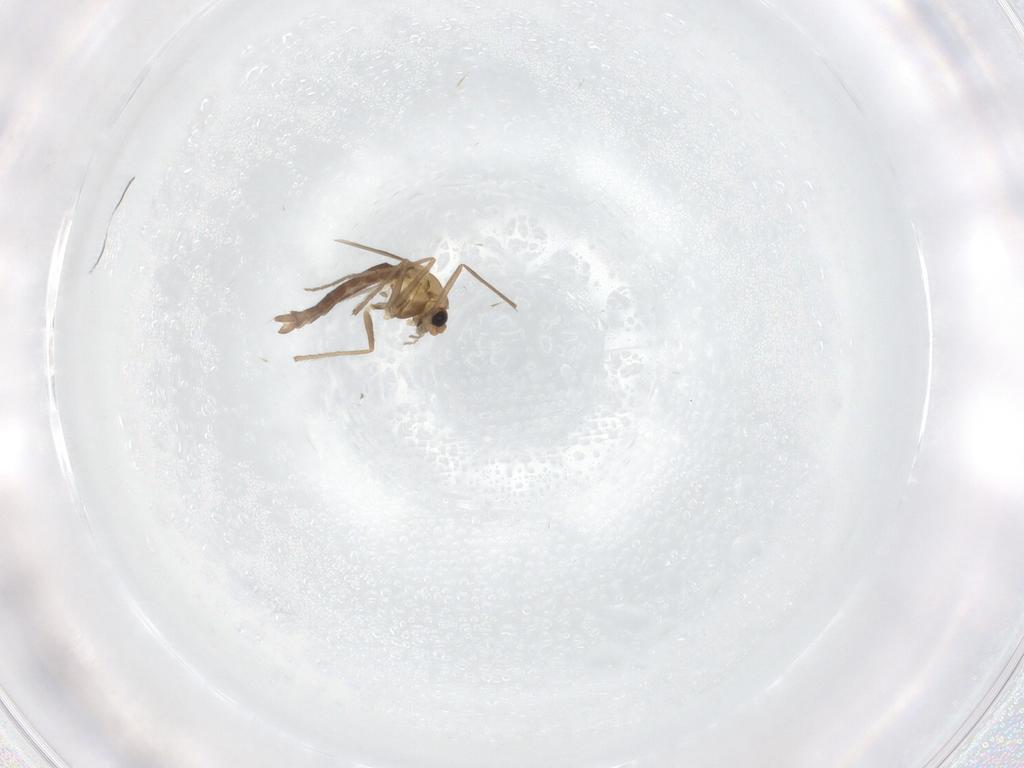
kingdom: Animalia
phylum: Arthropoda
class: Insecta
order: Diptera
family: Chironomidae
